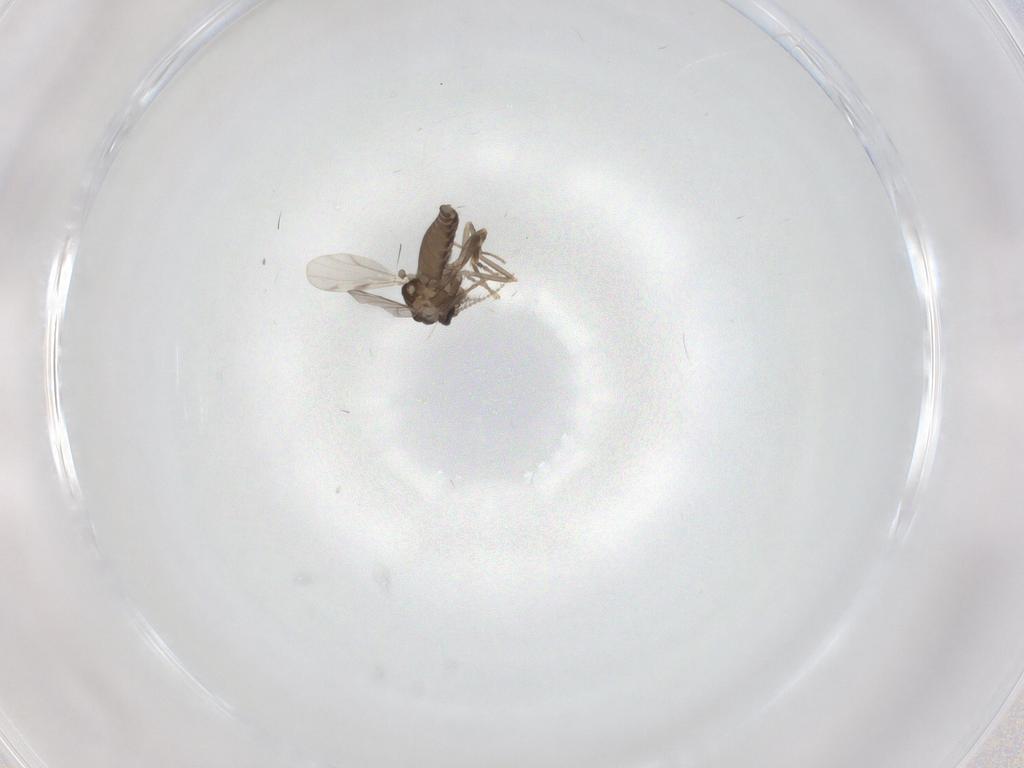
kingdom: Animalia
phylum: Arthropoda
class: Insecta
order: Diptera
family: Ceratopogonidae
